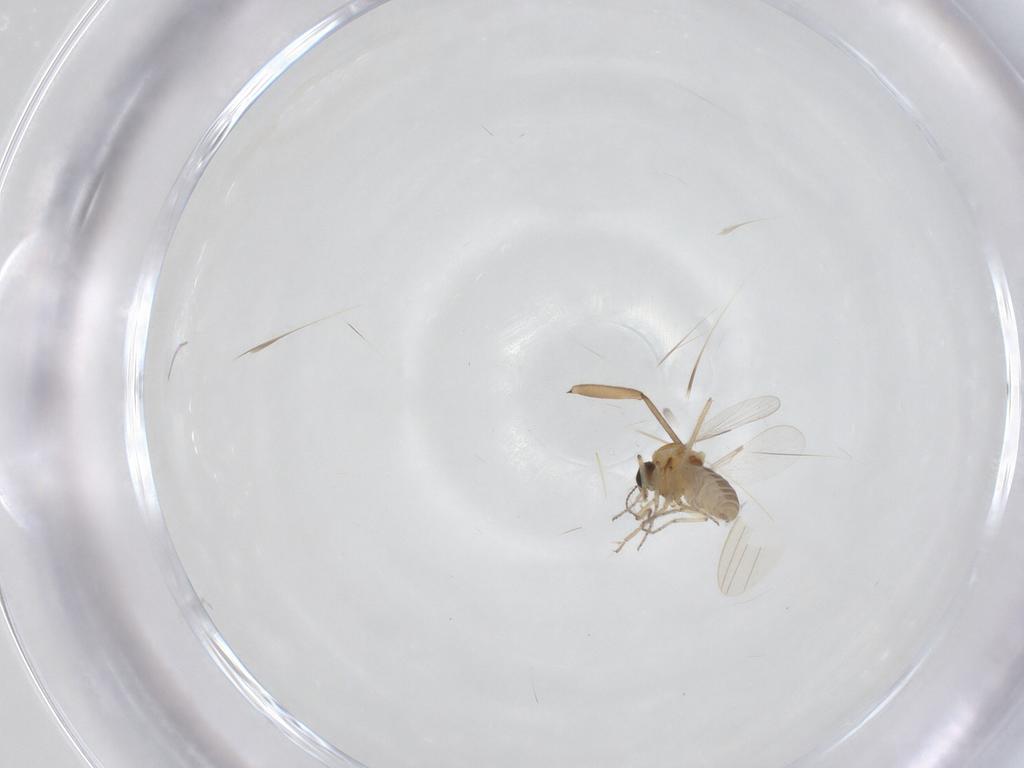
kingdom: Animalia
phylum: Arthropoda
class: Insecta
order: Diptera
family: Ceratopogonidae
